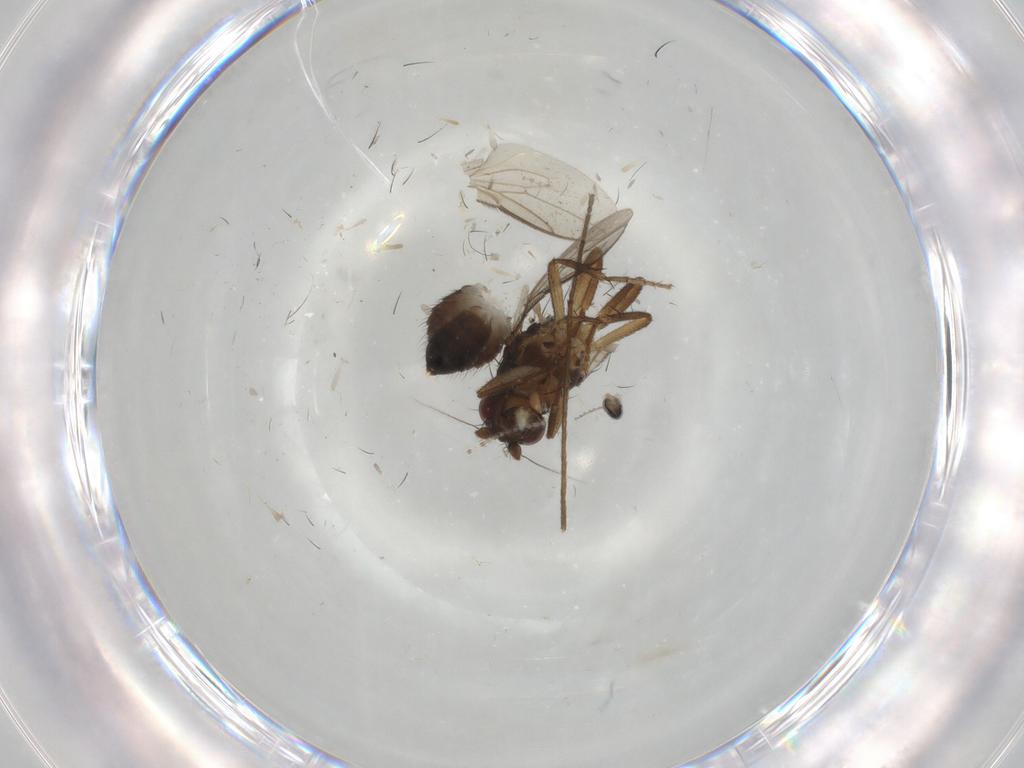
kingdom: Animalia
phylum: Arthropoda
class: Insecta
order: Diptera
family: Sphaeroceridae
